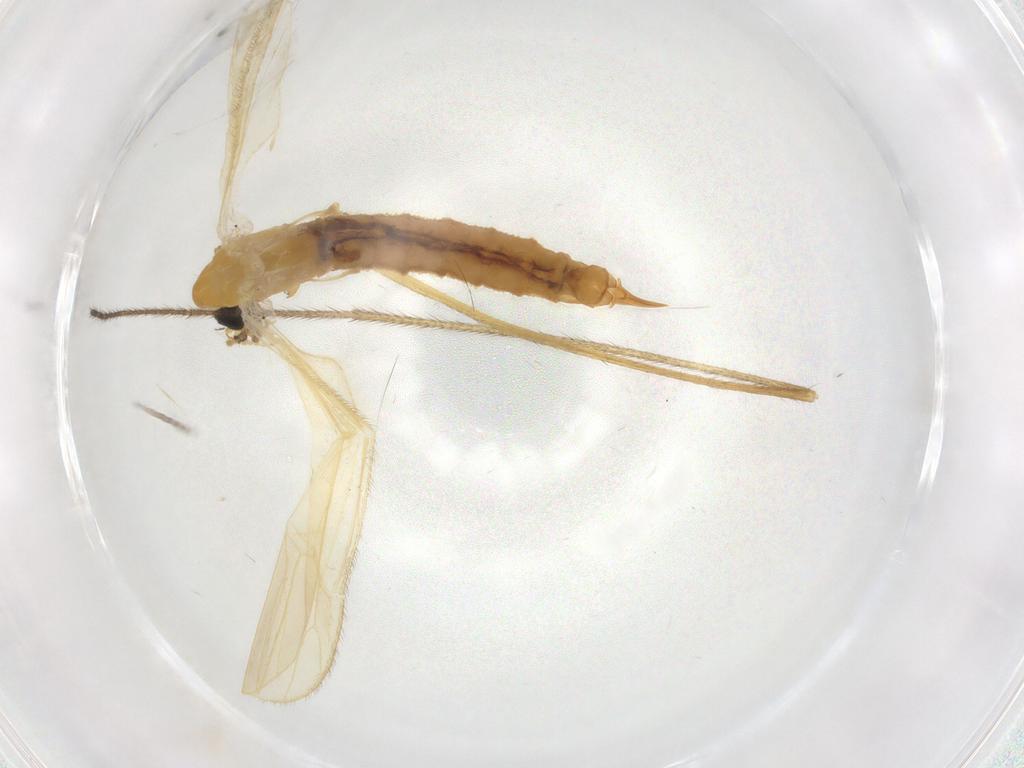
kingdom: Animalia
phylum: Arthropoda
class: Insecta
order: Diptera
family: Limoniidae
